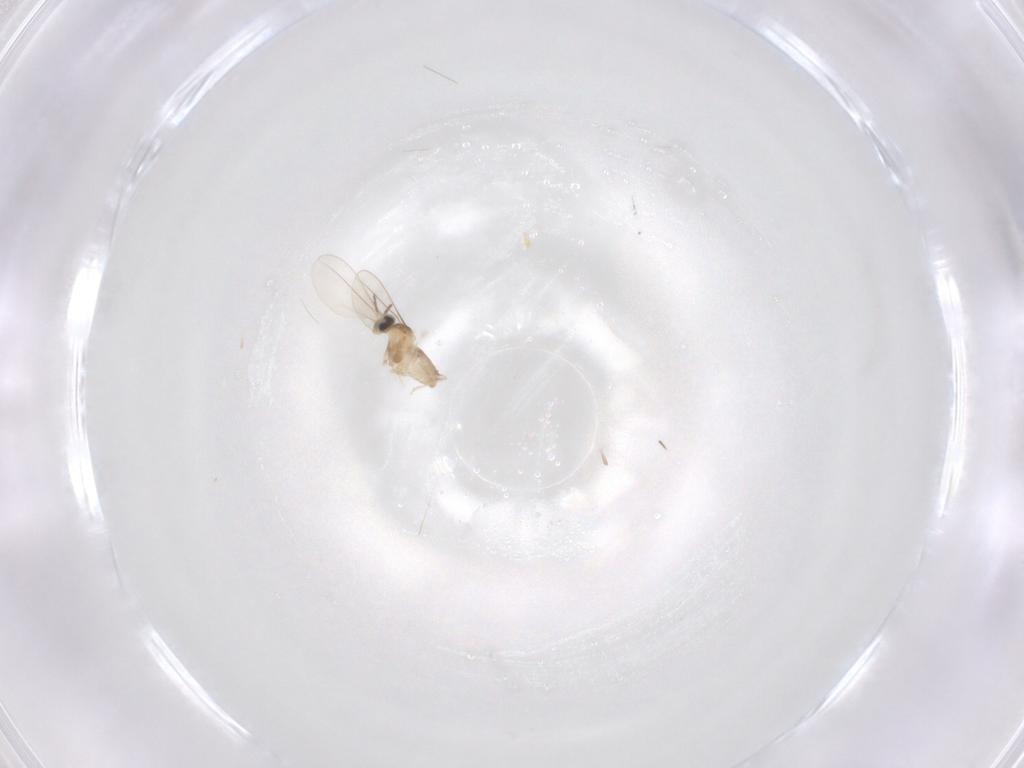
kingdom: Animalia
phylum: Arthropoda
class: Insecta
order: Diptera
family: Cecidomyiidae
